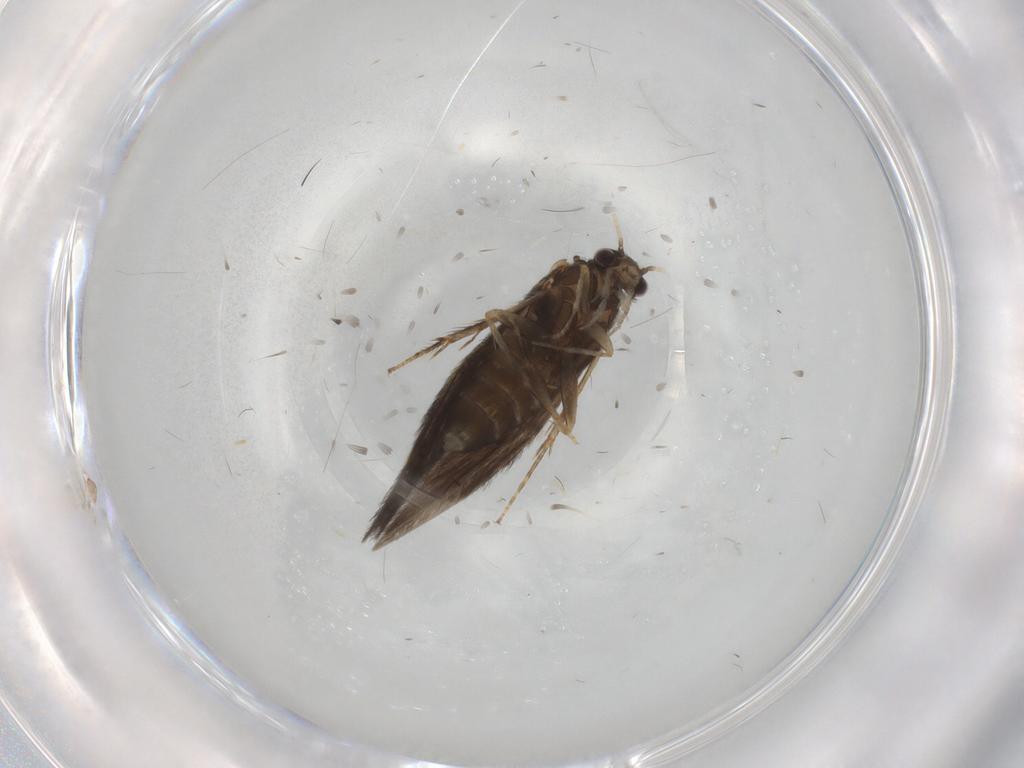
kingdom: Animalia
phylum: Arthropoda
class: Insecta
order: Trichoptera
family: Hydroptilidae
